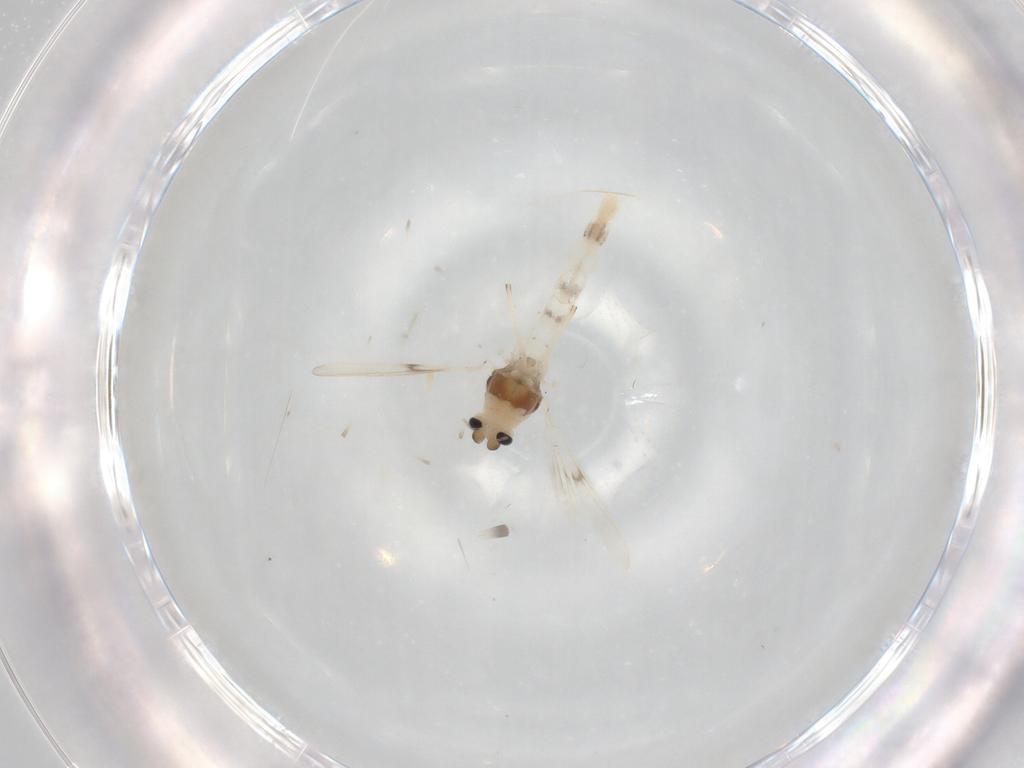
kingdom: Animalia
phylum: Arthropoda
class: Insecta
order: Diptera
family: Chironomidae
